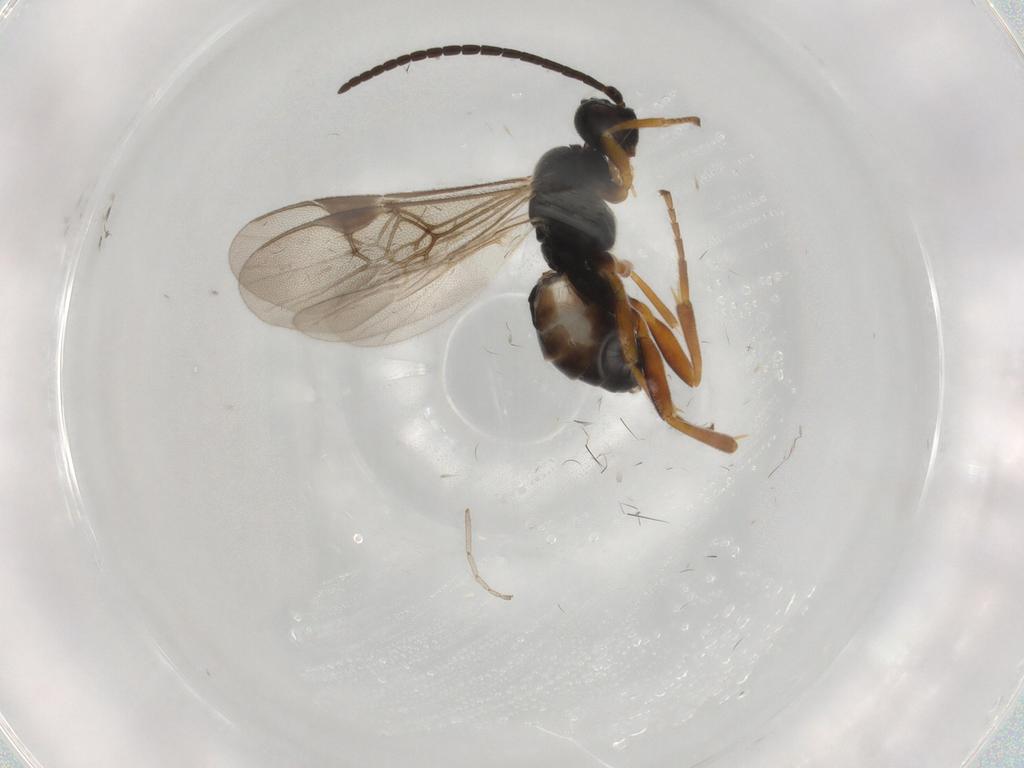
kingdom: Animalia
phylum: Arthropoda
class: Insecta
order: Hymenoptera
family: Braconidae
